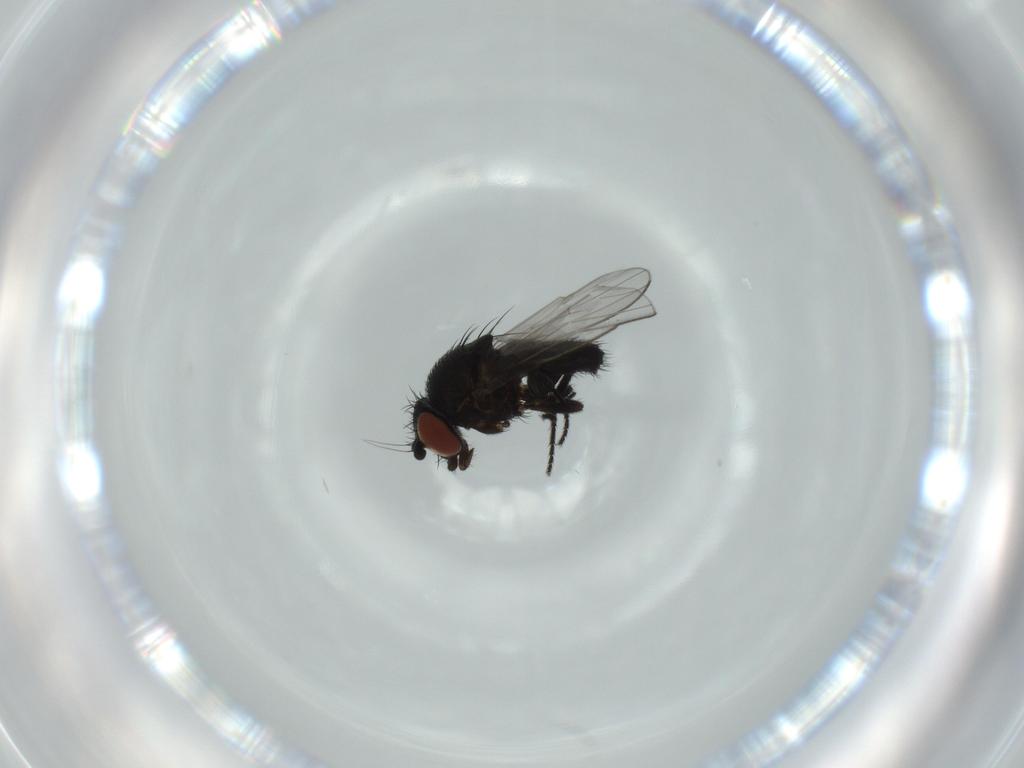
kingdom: Animalia
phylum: Arthropoda
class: Insecta
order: Diptera
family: Milichiidae
